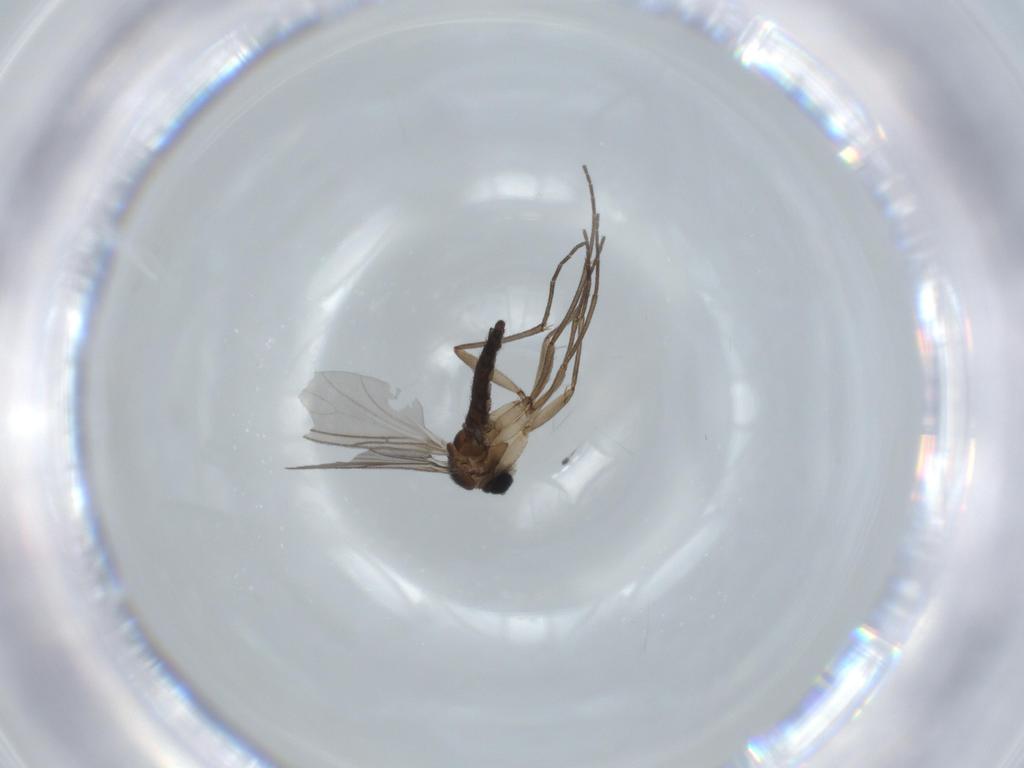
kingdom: Animalia
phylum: Arthropoda
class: Insecta
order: Diptera
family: Sciaridae
